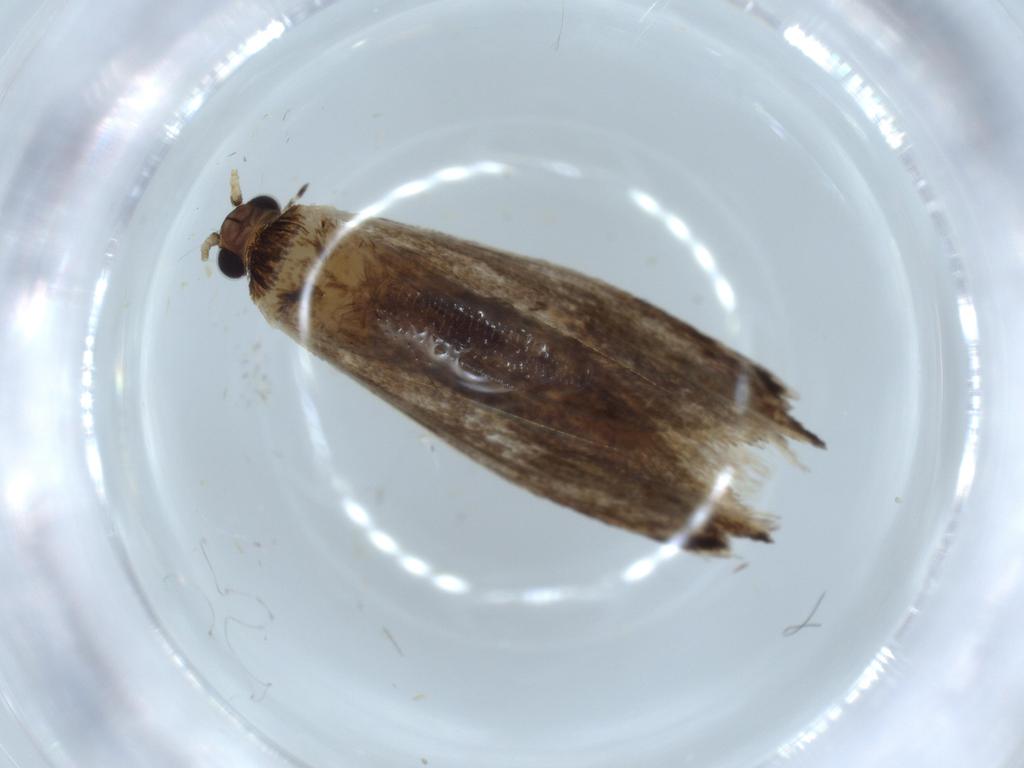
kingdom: Animalia
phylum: Arthropoda
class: Insecta
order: Lepidoptera
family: Tineidae
